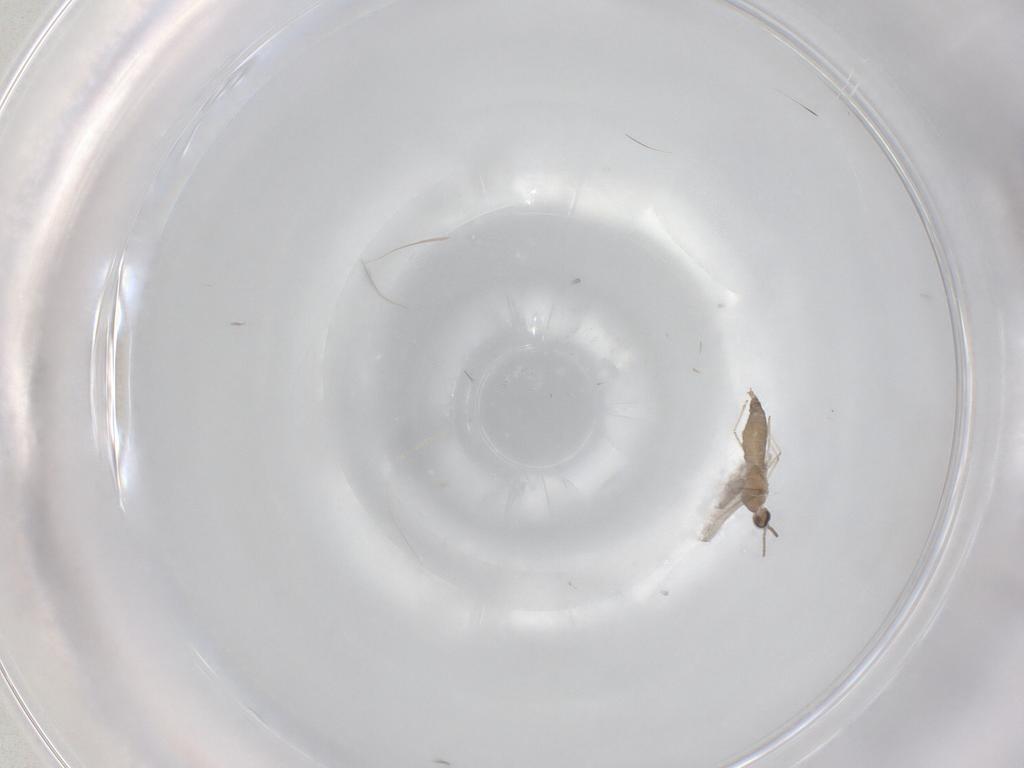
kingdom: Animalia
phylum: Arthropoda
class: Insecta
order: Diptera
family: Cecidomyiidae
